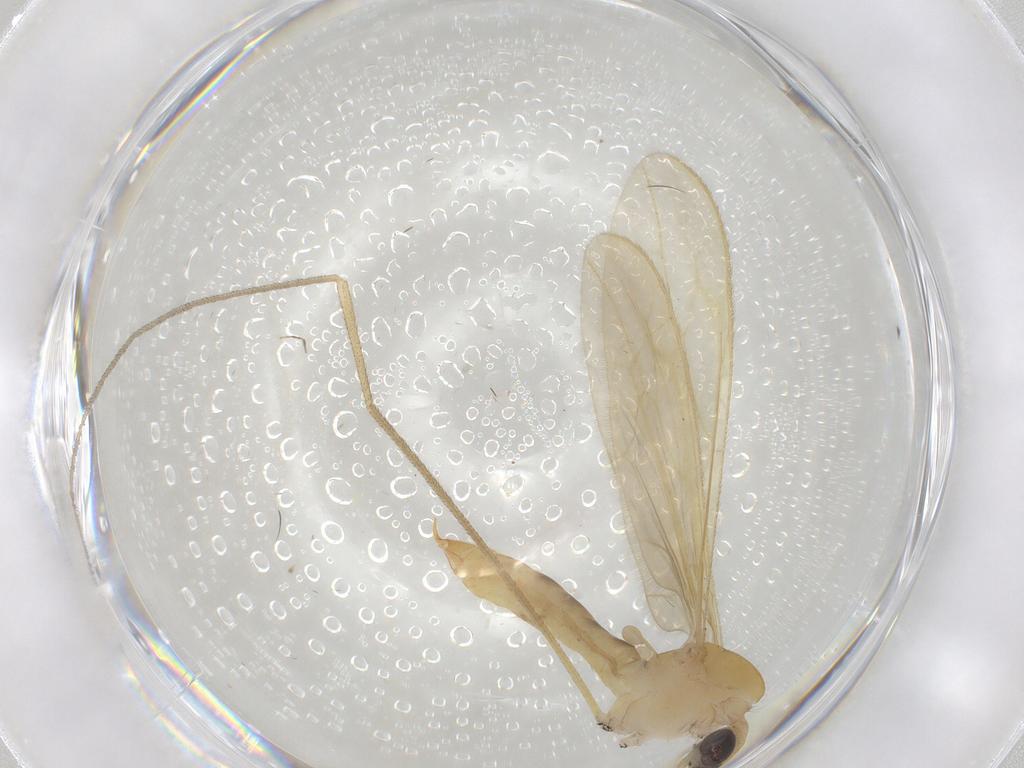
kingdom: Animalia
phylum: Arthropoda
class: Insecta
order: Diptera
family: Limoniidae
